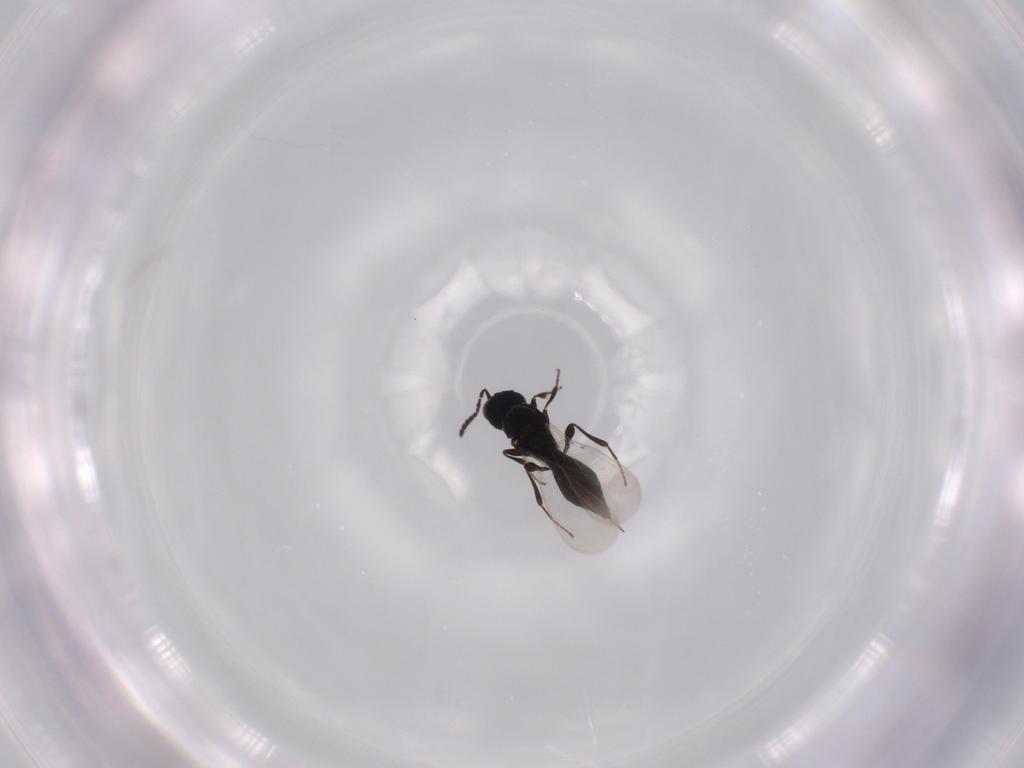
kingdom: Animalia
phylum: Arthropoda
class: Insecta
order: Diptera
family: Mythicomyiidae
